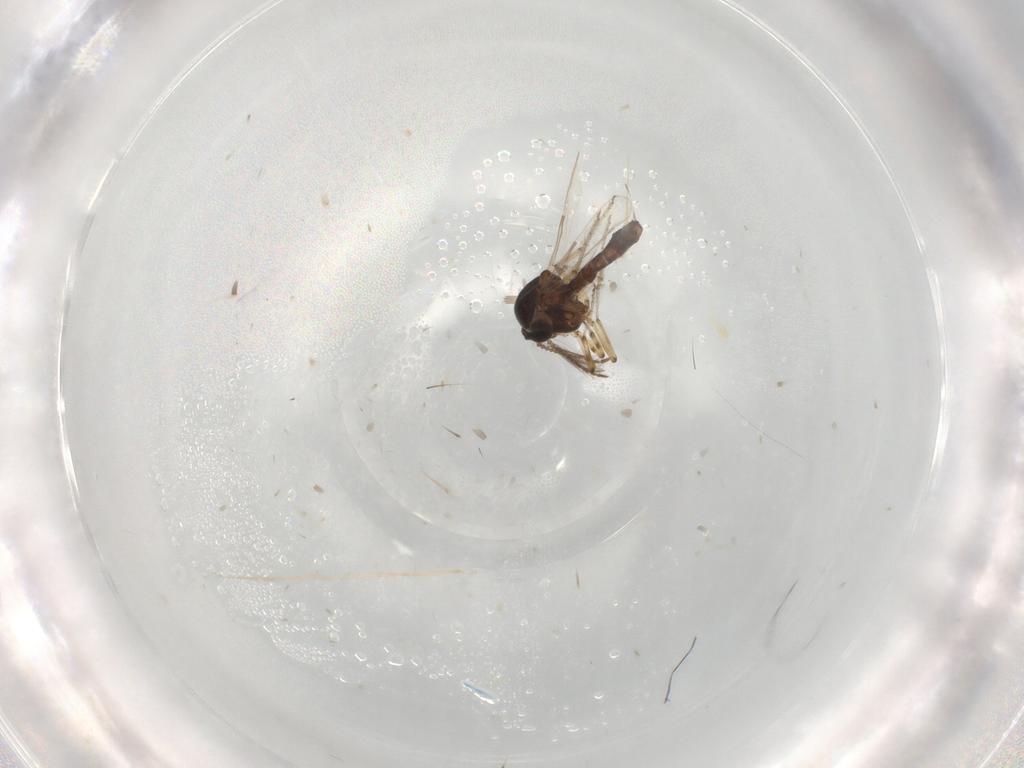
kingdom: Animalia
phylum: Arthropoda
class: Insecta
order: Diptera
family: Ceratopogonidae
